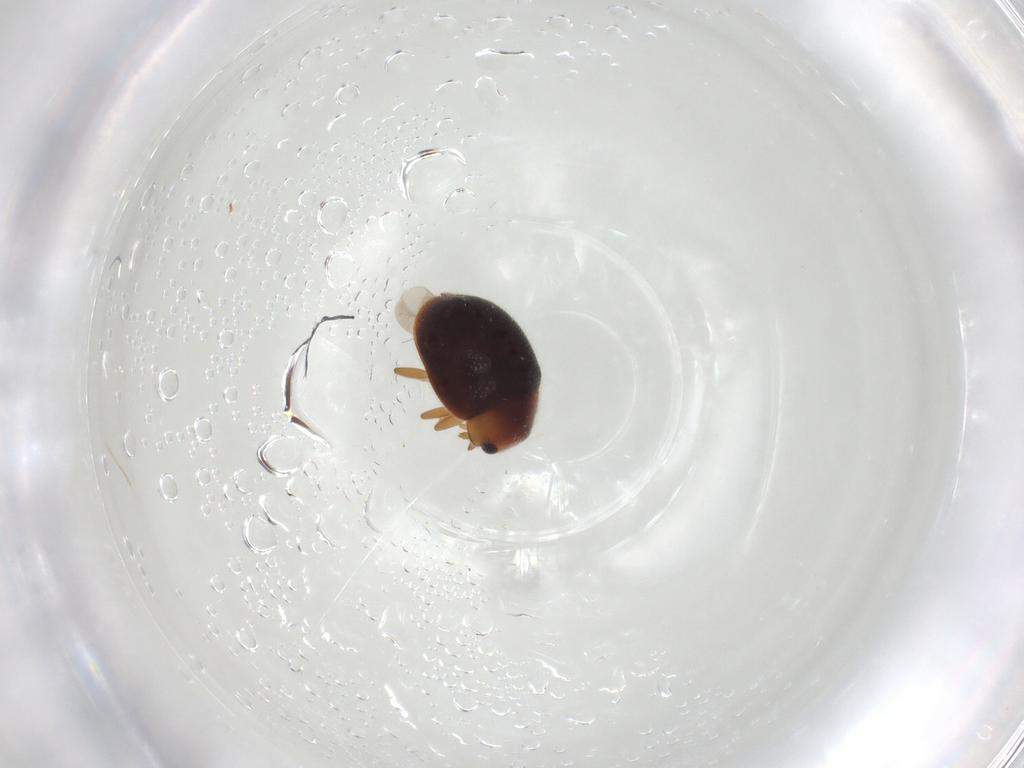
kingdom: Animalia
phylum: Arthropoda
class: Insecta
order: Coleoptera
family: Coccinellidae
